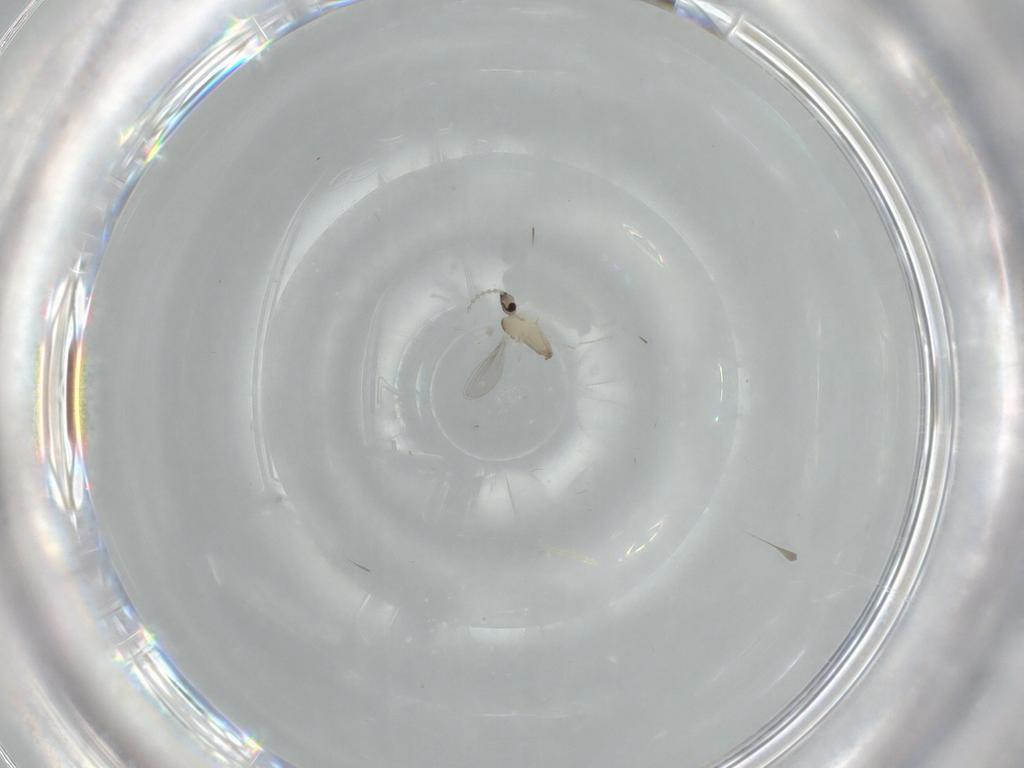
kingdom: Animalia
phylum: Arthropoda
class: Insecta
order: Diptera
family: Cecidomyiidae
